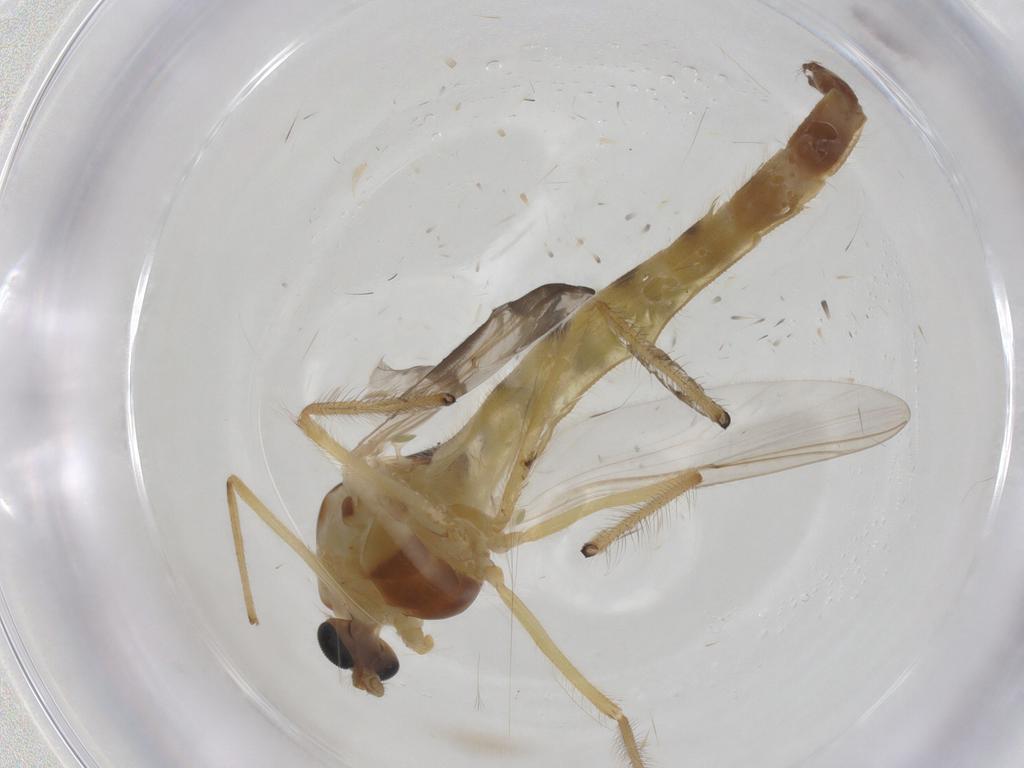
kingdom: Animalia
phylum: Arthropoda
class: Insecta
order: Diptera
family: Chironomidae
